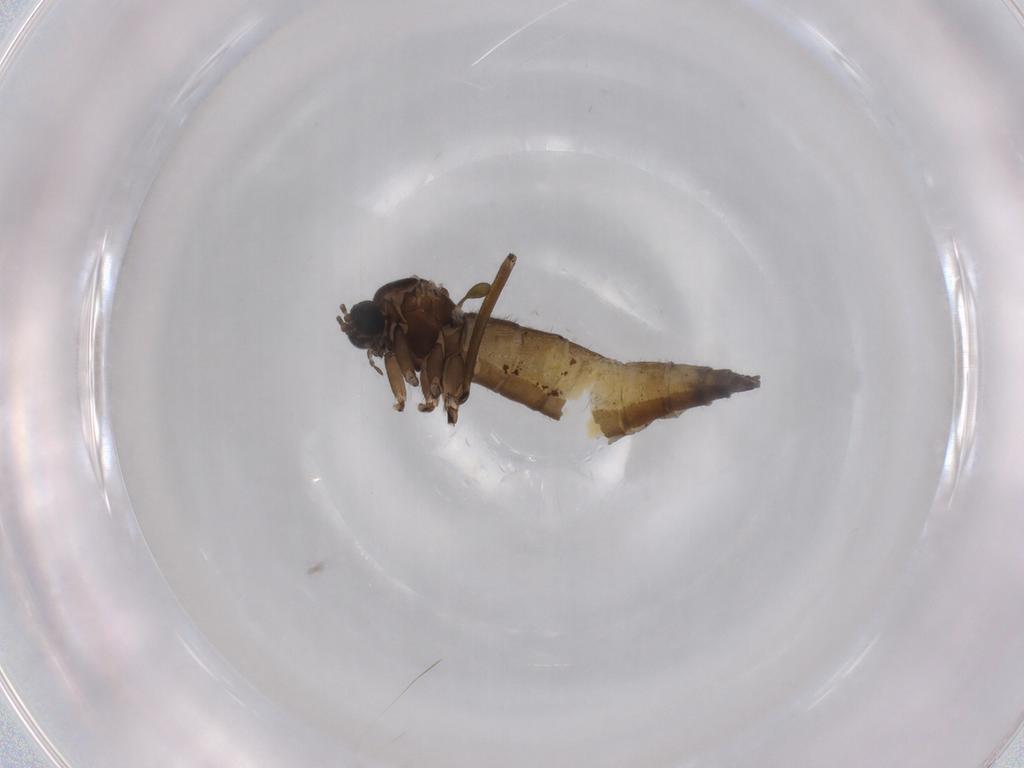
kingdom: Animalia
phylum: Arthropoda
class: Insecta
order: Diptera
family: Sciaridae
